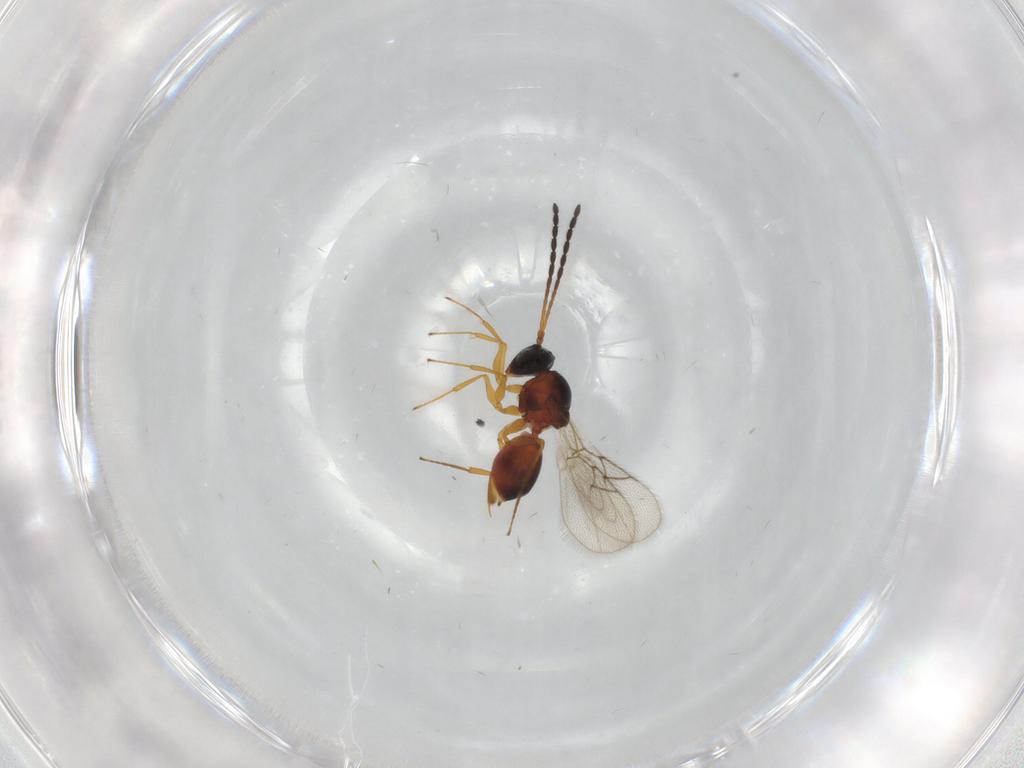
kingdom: Animalia
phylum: Arthropoda
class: Insecta
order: Hymenoptera
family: Figitidae
